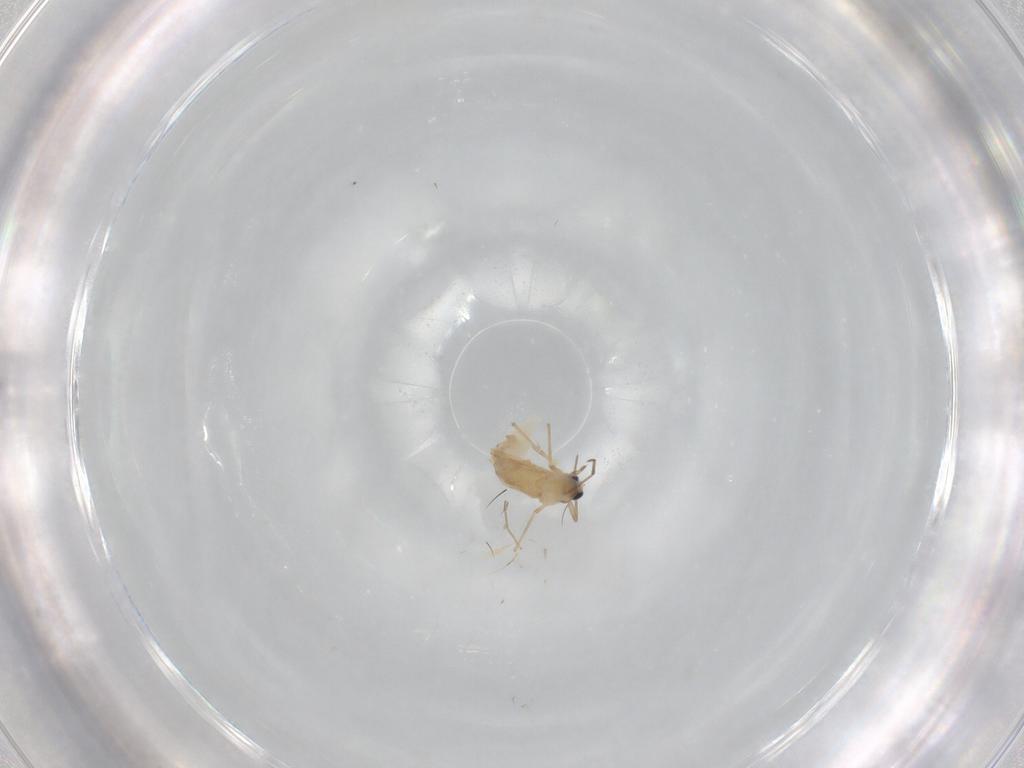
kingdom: Animalia
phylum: Arthropoda
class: Insecta
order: Diptera
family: Chironomidae
